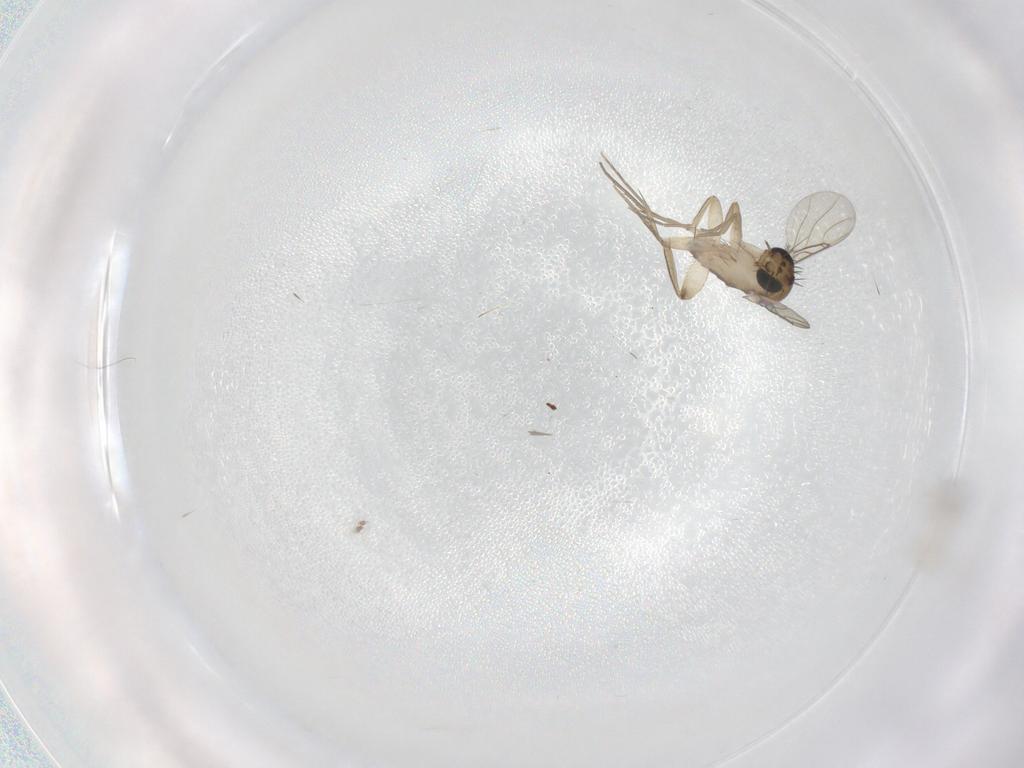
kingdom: Animalia
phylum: Arthropoda
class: Insecta
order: Diptera
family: Phoridae
